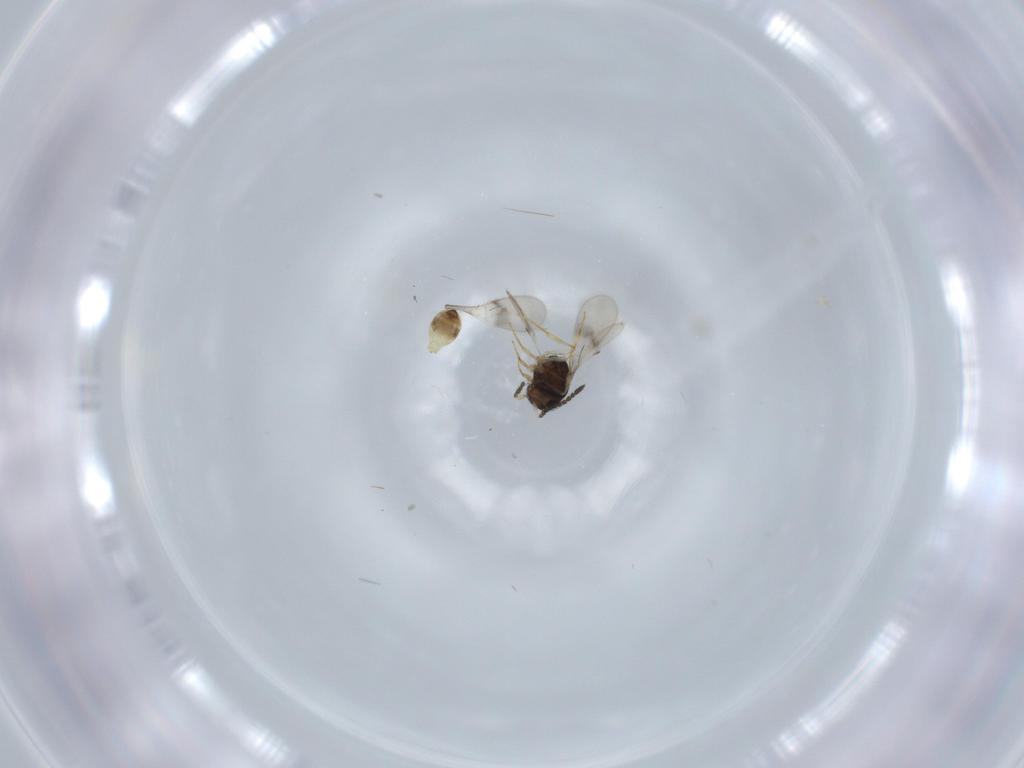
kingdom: Animalia
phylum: Arthropoda
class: Insecta
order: Hymenoptera
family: Scelionidae
